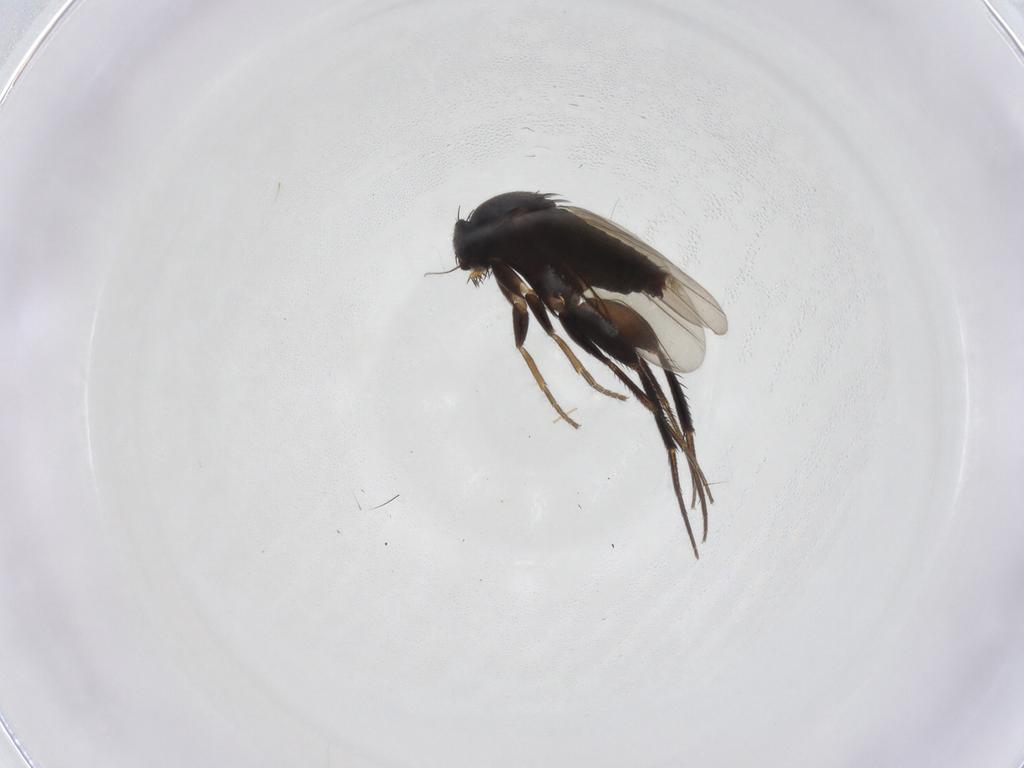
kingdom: Animalia
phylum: Arthropoda
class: Insecta
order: Diptera
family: Phoridae
